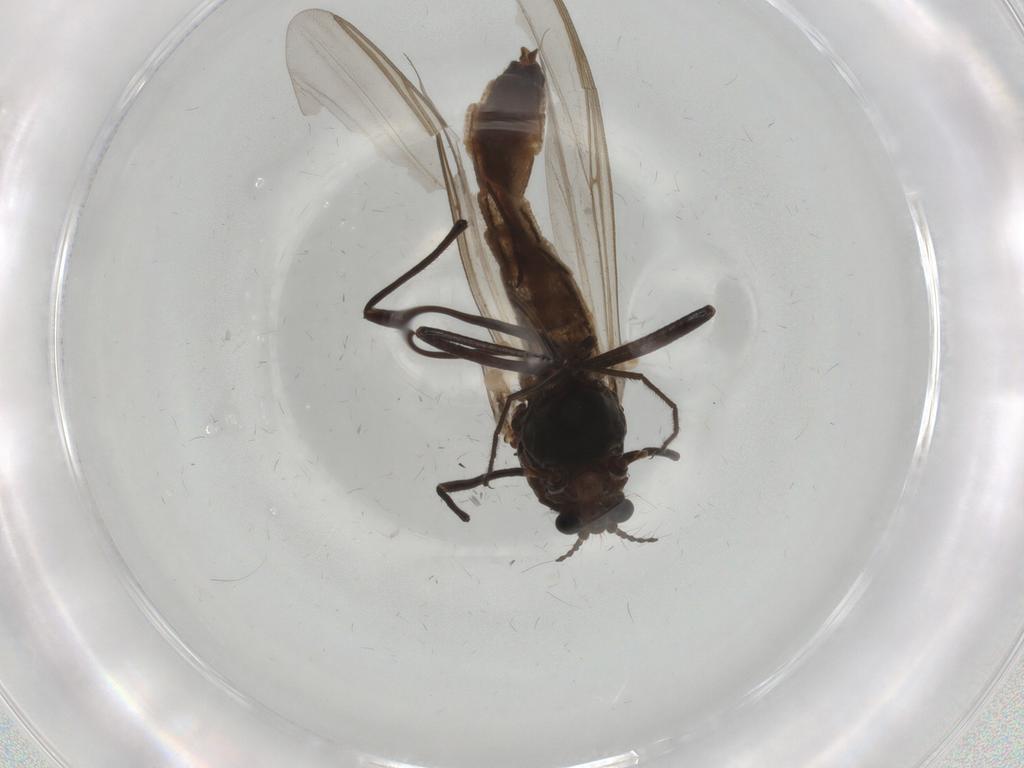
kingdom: Animalia
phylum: Arthropoda
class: Insecta
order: Diptera
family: Chironomidae
